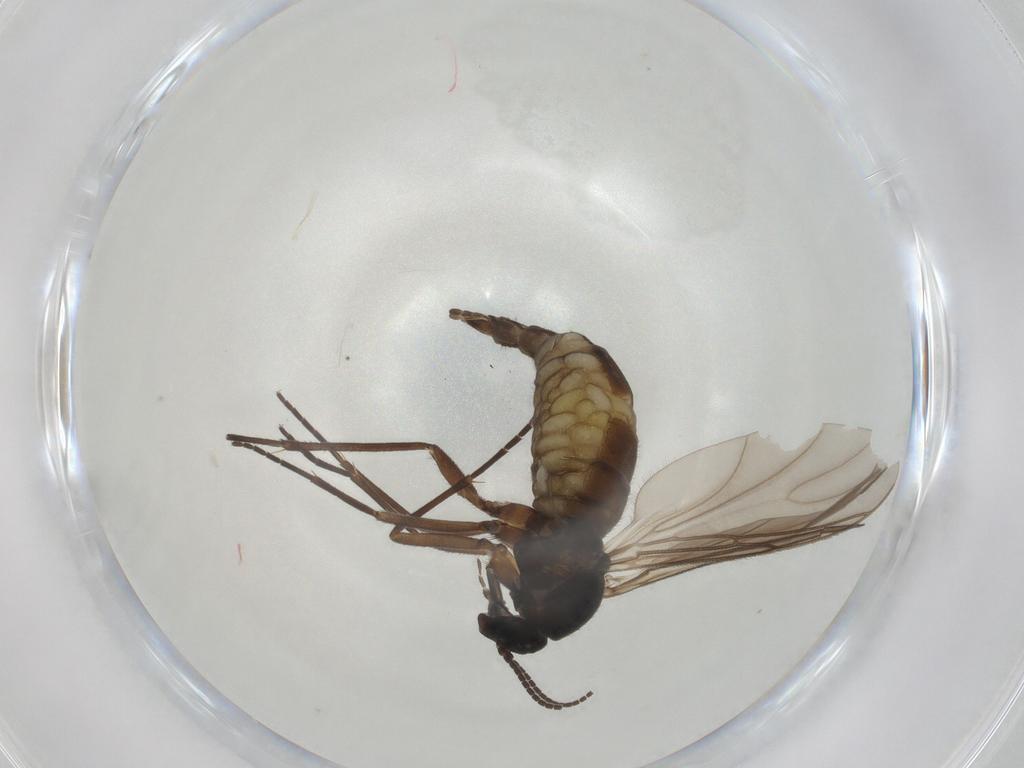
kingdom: Animalia
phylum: Arthropoda
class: Insecta
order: Diptera
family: Sciaridae
